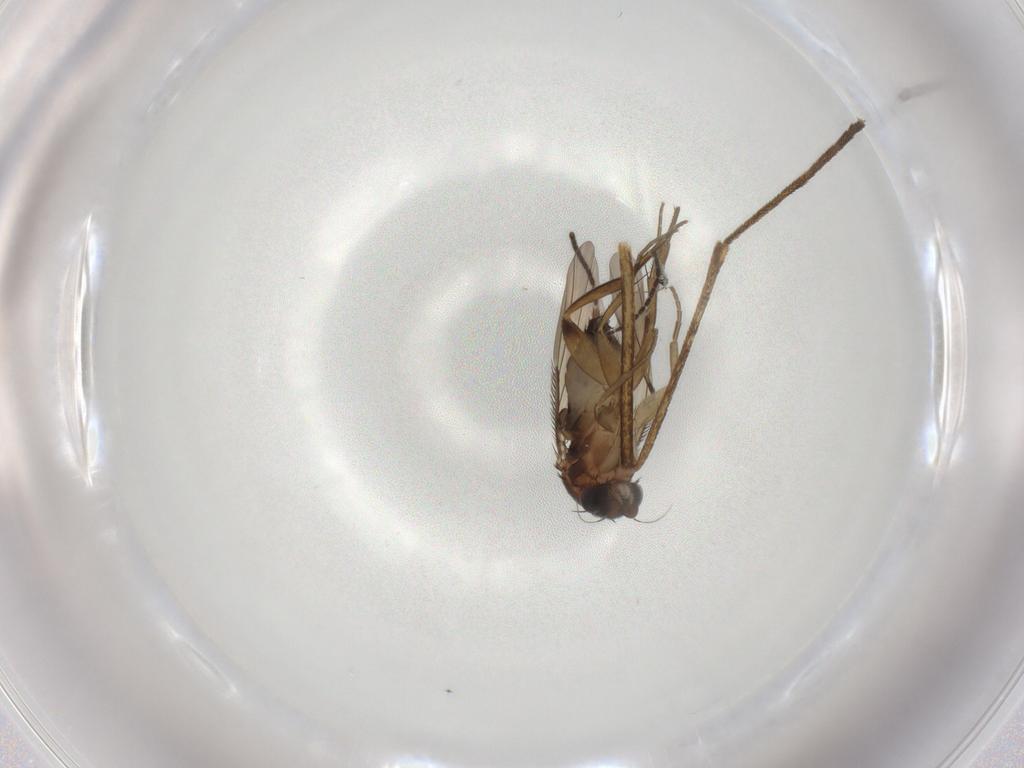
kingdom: Animalia
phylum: Arthropoda
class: Insecta
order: Diptera
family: Phoridae
